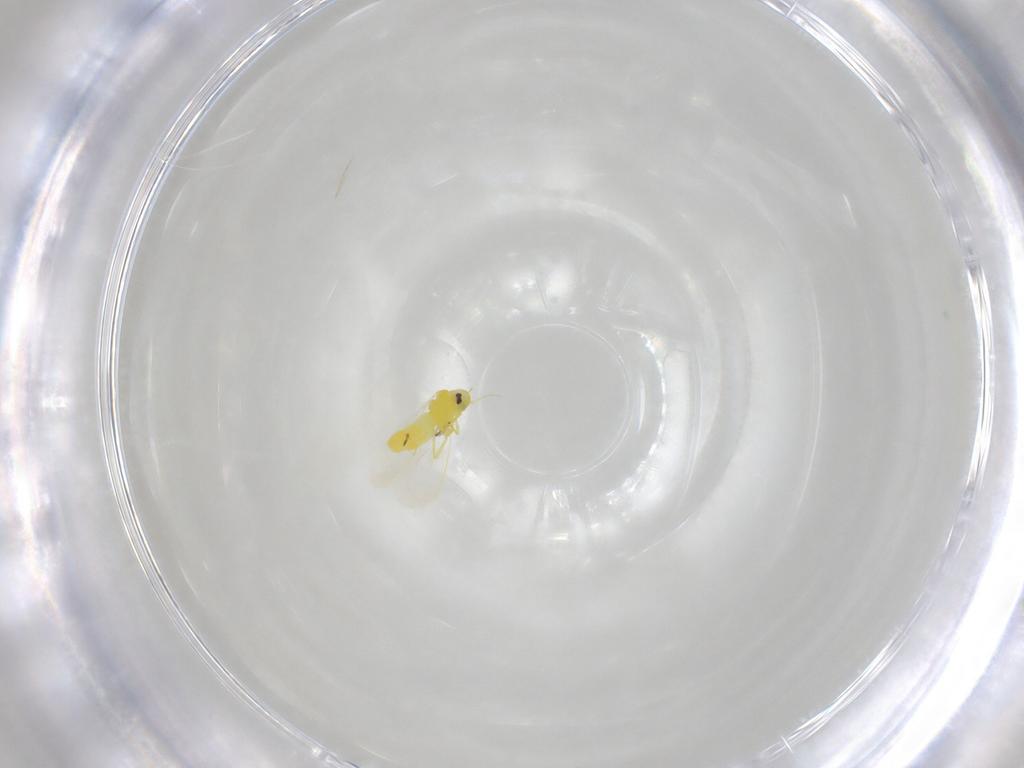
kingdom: Animalia
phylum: Arthropoda
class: Insecta
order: Hemiptera
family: Aleyrodidae
